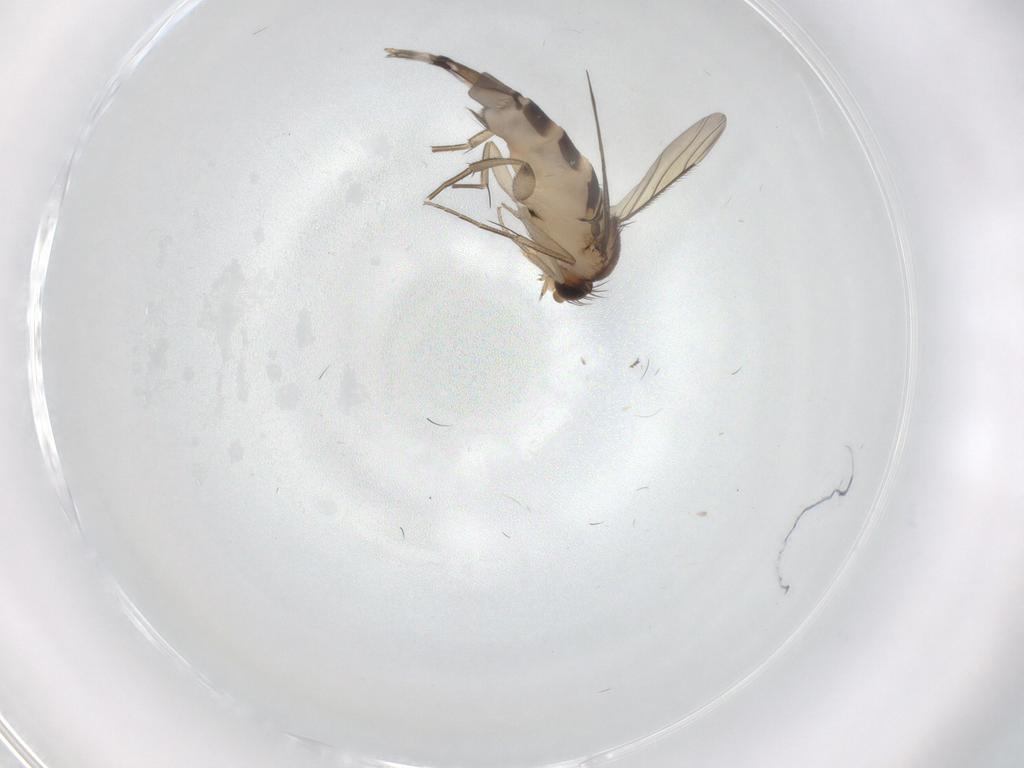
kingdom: Animalia
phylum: Arthropoda
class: Insecta
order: Diptera
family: Phoridae
